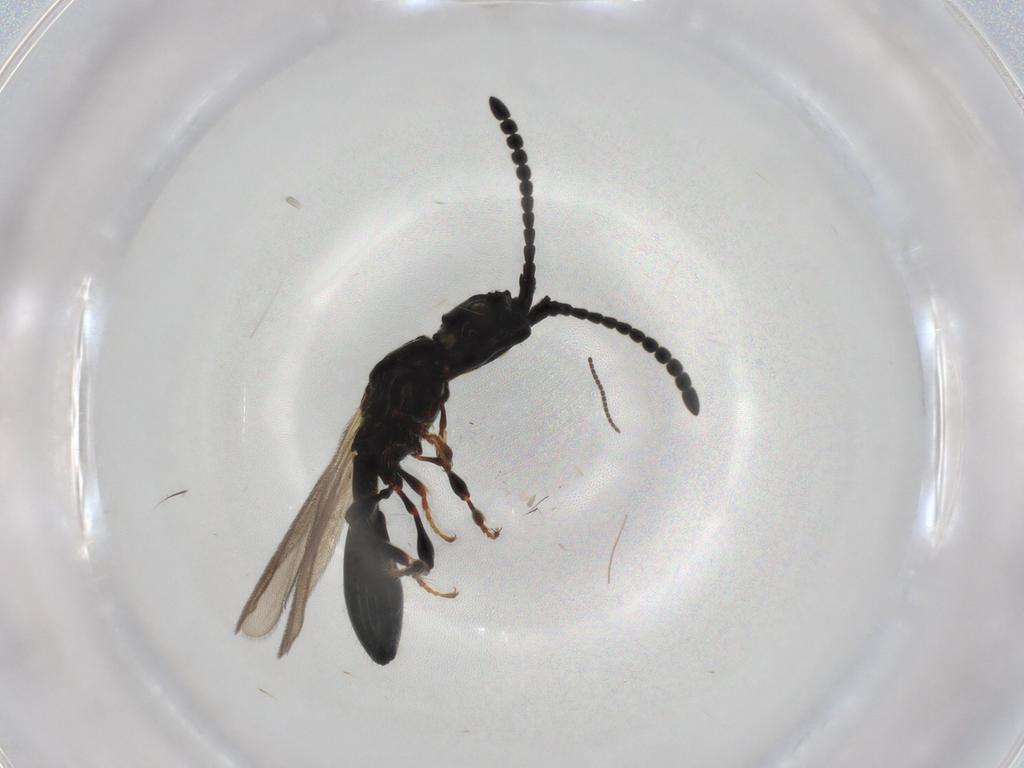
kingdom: Animalia
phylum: Arthropoda
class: Insecta
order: Hymenoptera
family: Diapriidae
